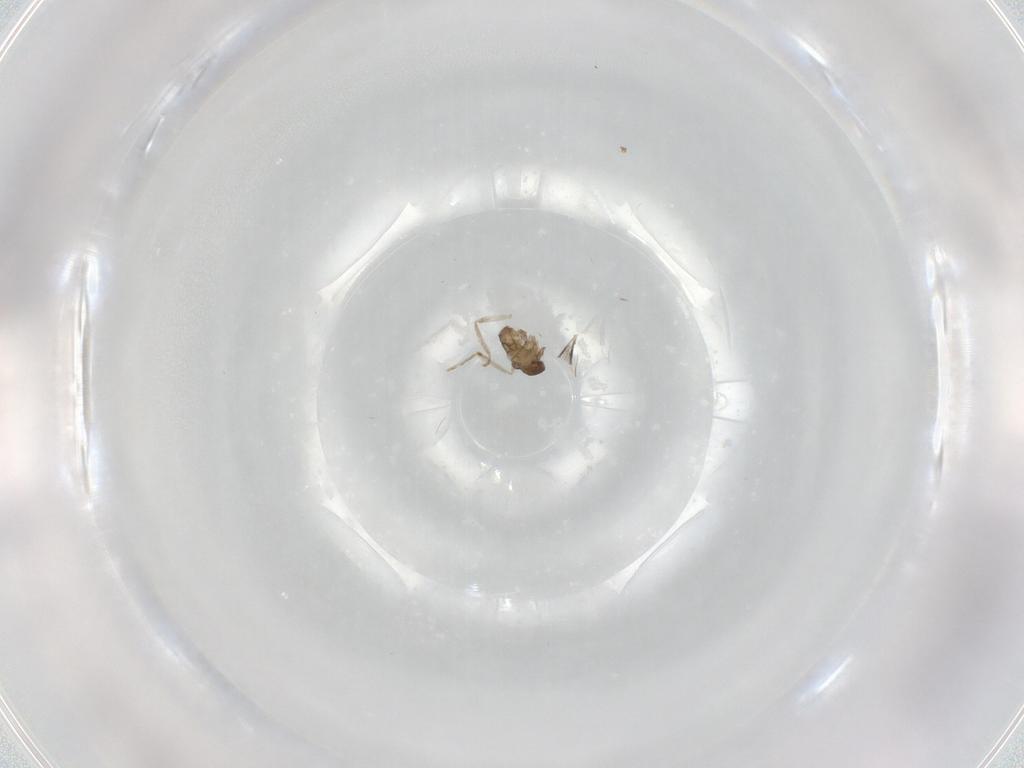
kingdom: Animalia
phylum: Arthropoda
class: Insecta
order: Diptera
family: Cecidomyiidae
